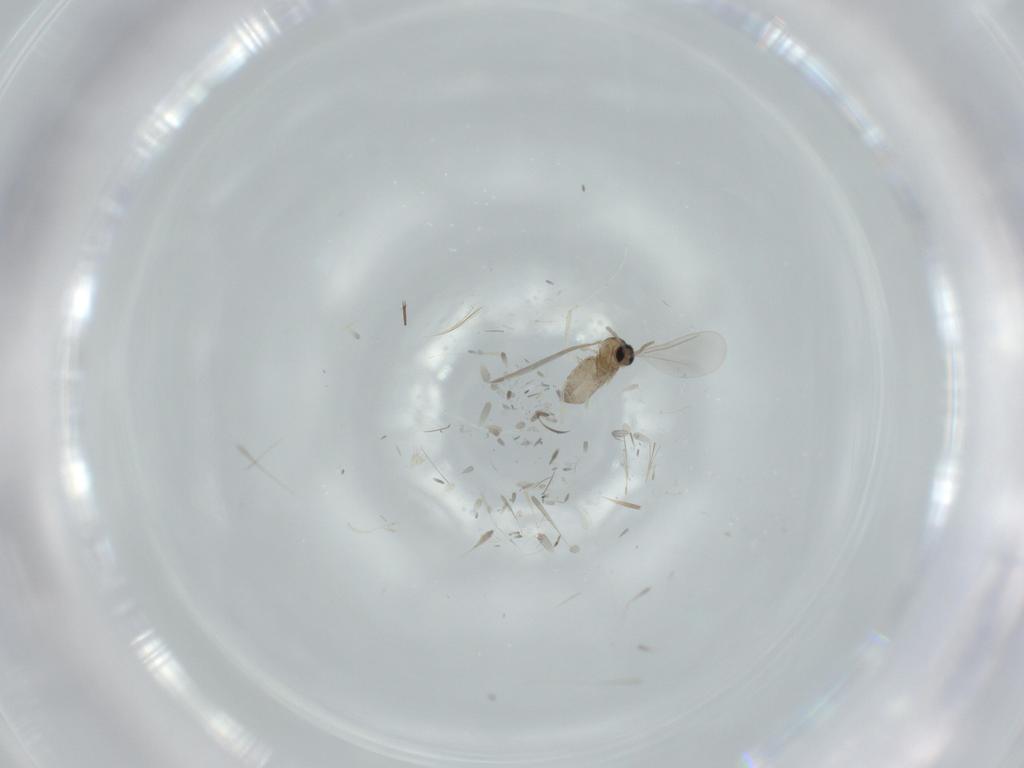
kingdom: Animalia
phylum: Arthropoda
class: Insecta
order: Diptera
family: Cecidomyiidae
